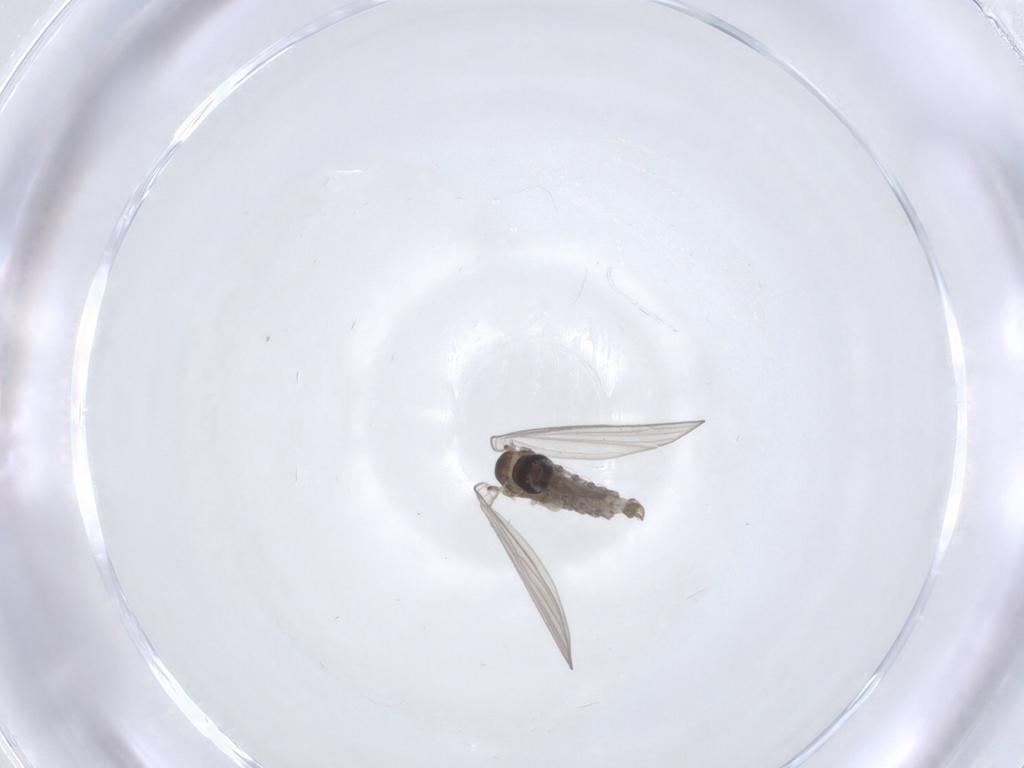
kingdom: Animalia
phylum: Arthropoda
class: Insecta
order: Diptera
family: Psychodidae
